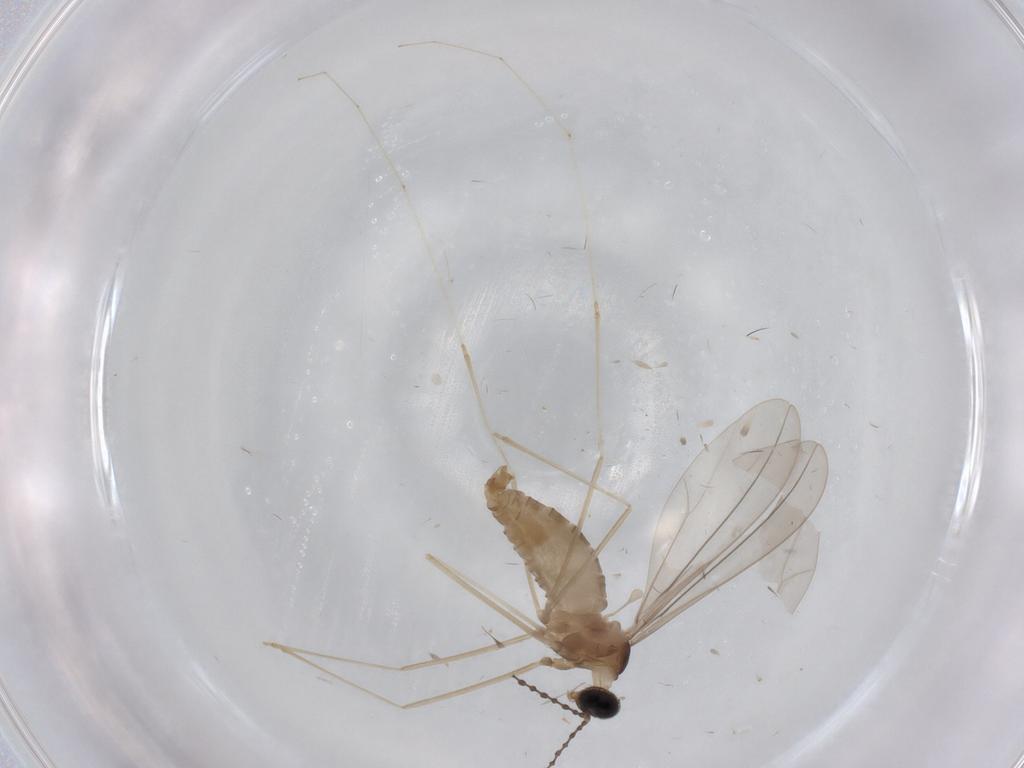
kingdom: Animalia
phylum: Arthropoda
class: Insecta
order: Diptera
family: Cecidomyiidae
